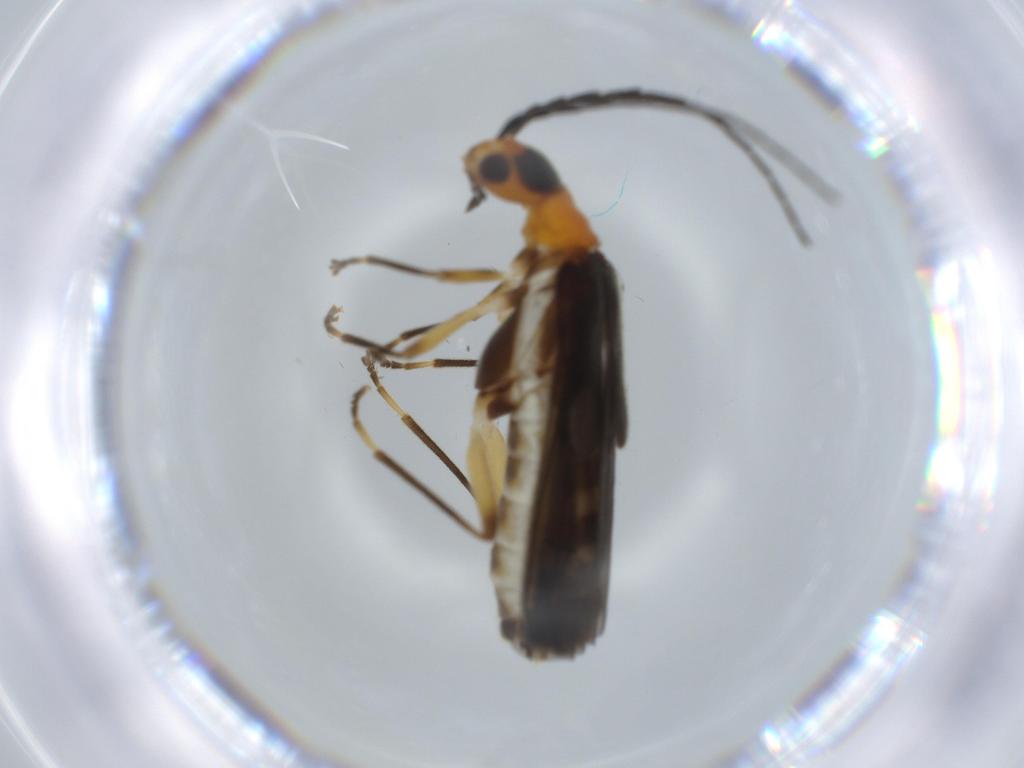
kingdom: Animalia
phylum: Arthropoda
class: Insecta
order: Coleoptera
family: Cantharidae
